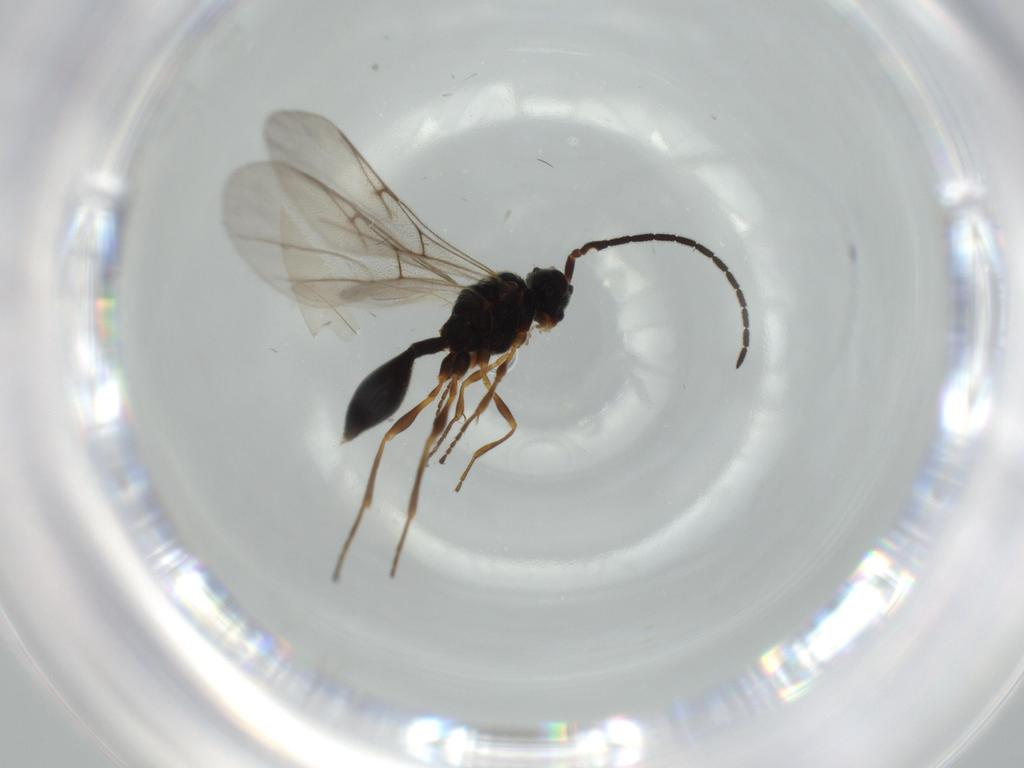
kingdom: Animalia
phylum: Arthropoda
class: Insecta
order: Hymenoptera
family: Diapriidae
